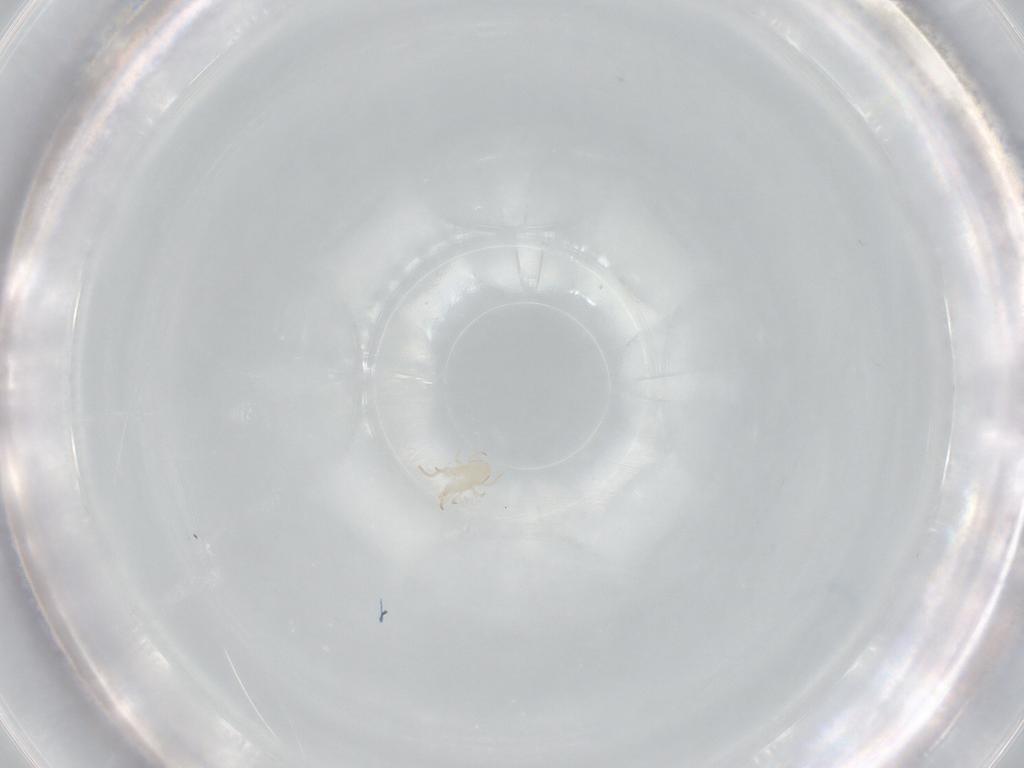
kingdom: Animalia
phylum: Arthropoda
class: Arachnida
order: Mesostigmata
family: Phytoseiidae
